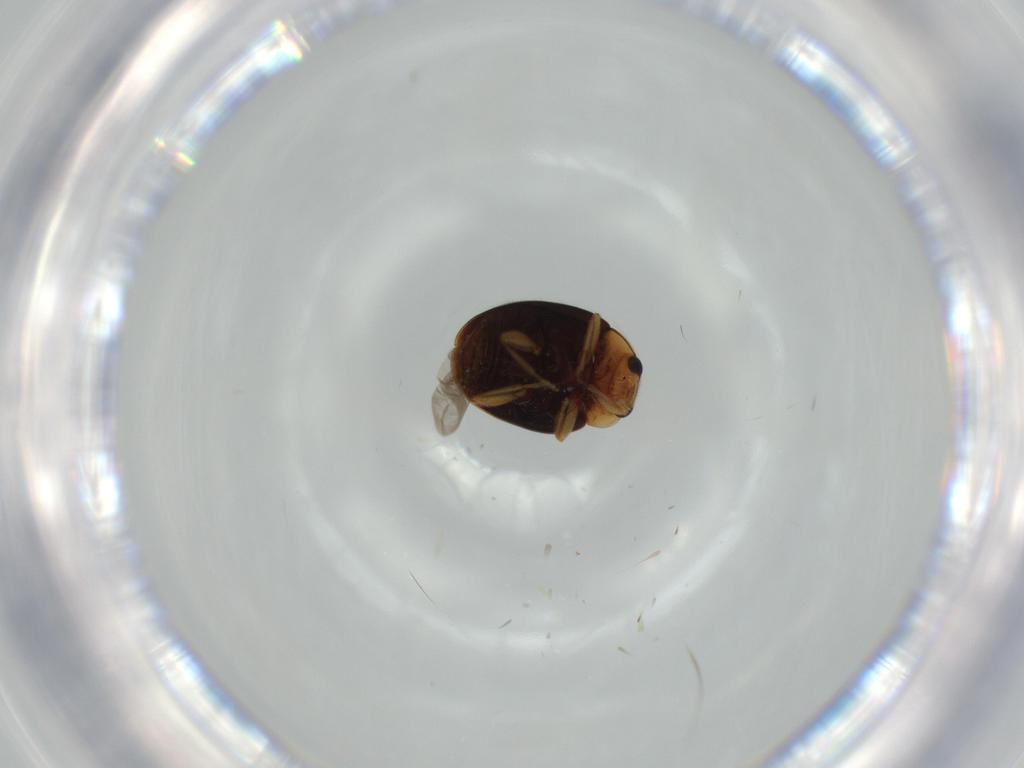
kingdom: Animalia
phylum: Arthropoda
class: Insecta
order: Coleoptera
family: Coccinellidae
